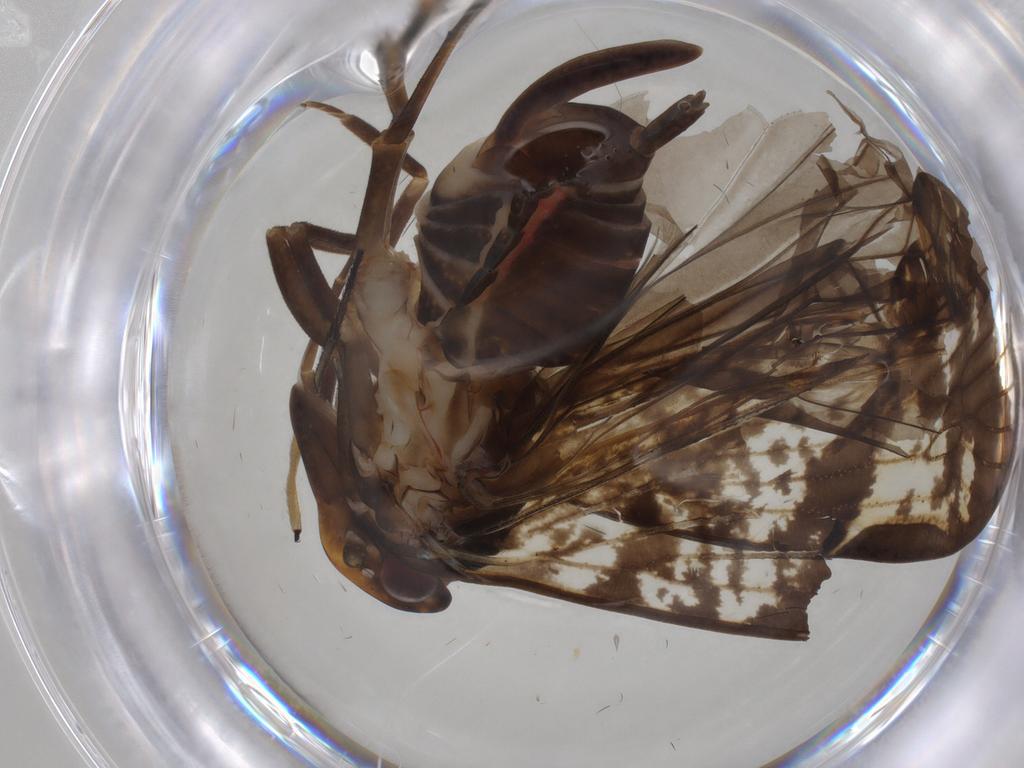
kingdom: Animalia
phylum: Arthropoda
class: Insecta
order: Hemiptera
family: Cixiidae
